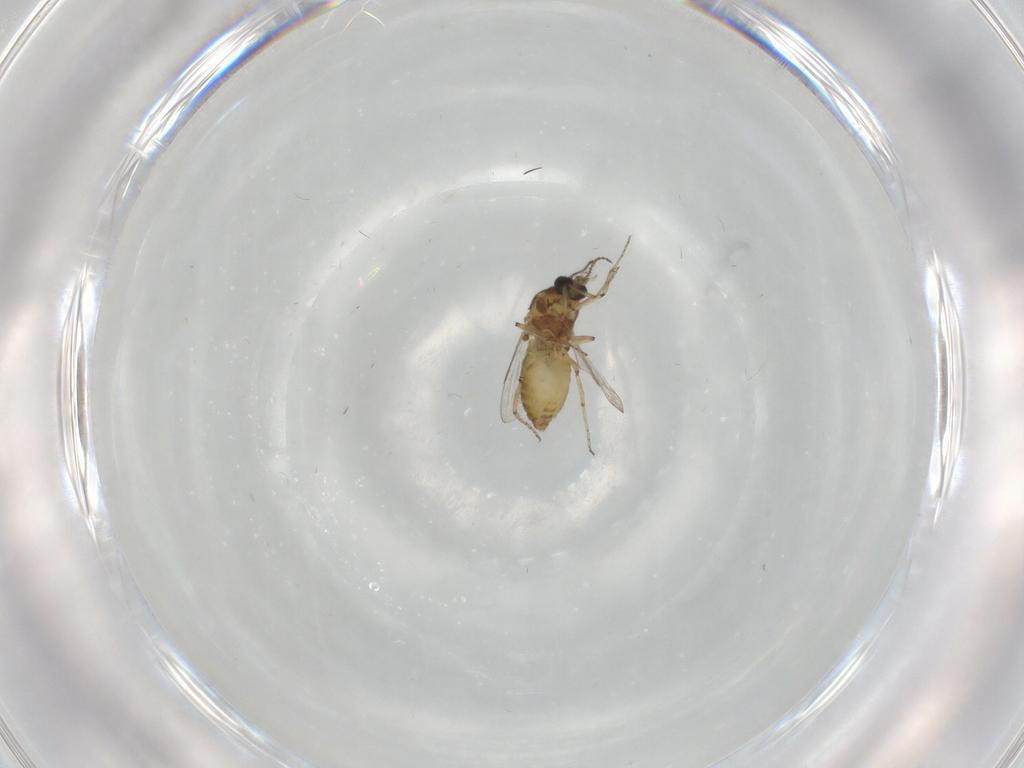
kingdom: Animalia
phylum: Arthropoda
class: Insecta
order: Diptera
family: Ceratopogonidae
